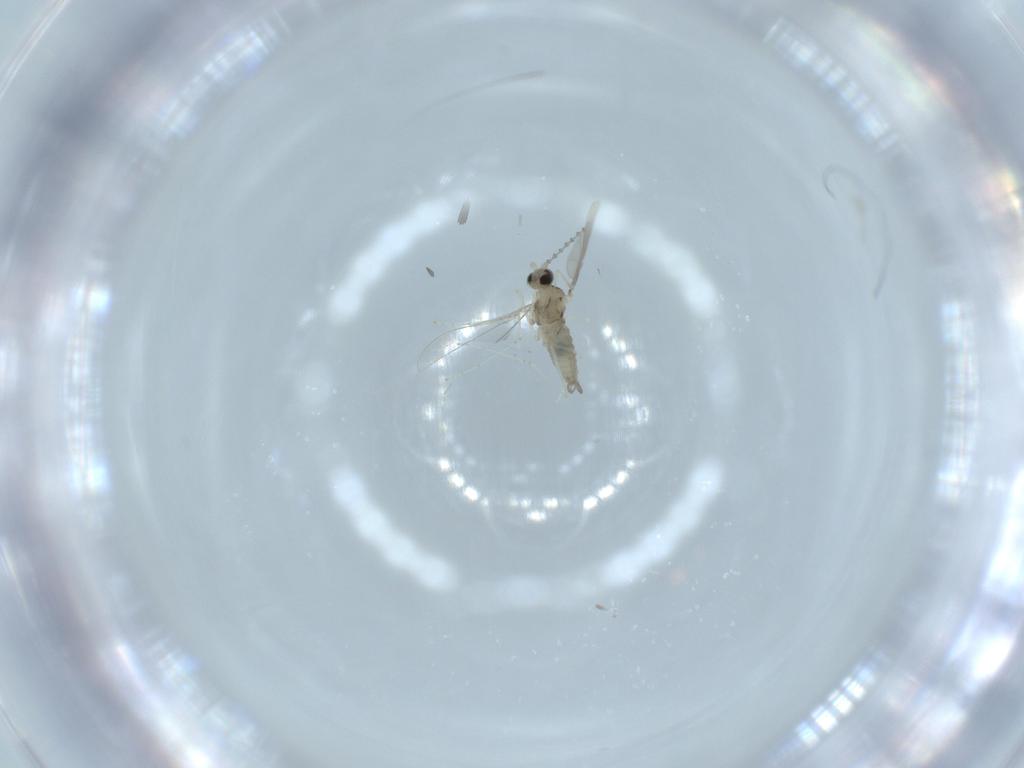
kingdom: Animalia
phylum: Arthropoda
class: Insecta
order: Diptera
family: Cecidomyiidae
